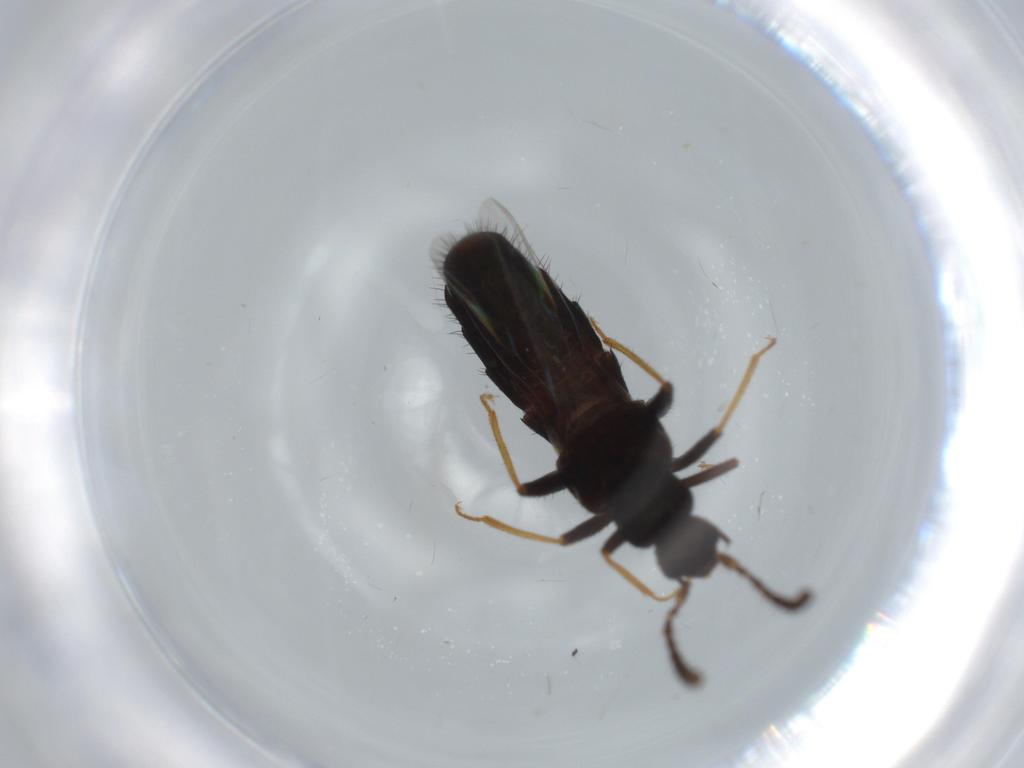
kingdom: Animalia
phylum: Arthropoda
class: Insecta
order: Coleoptera
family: Staphylinidae
